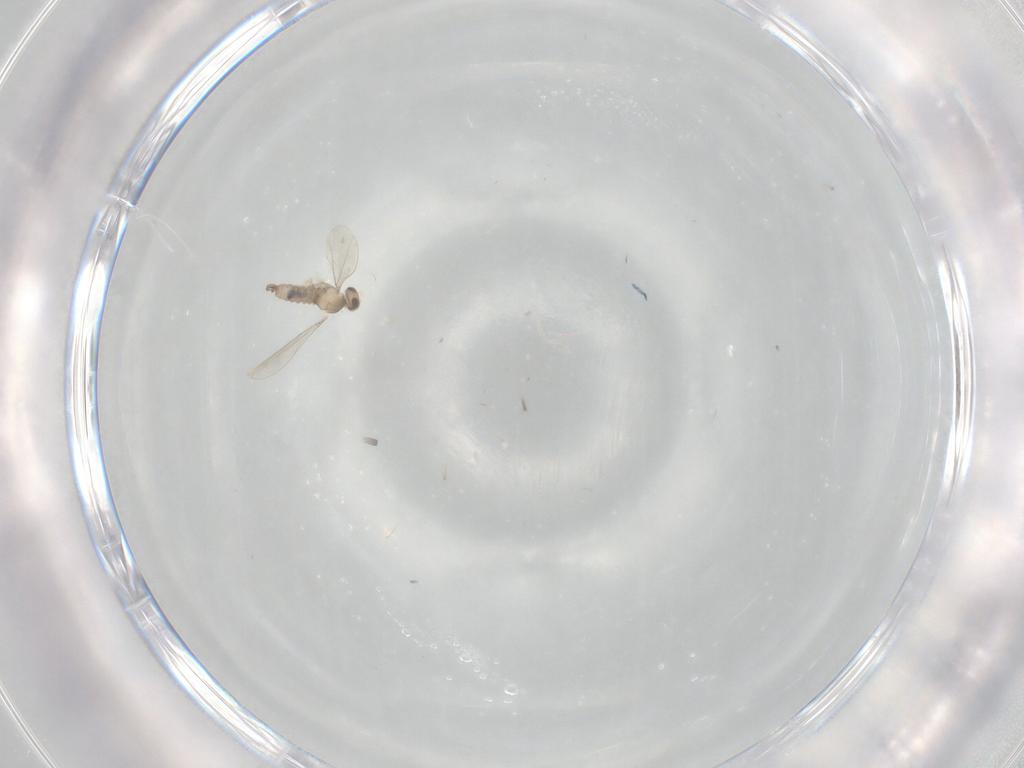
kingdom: Animalia
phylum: Arthropoda
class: Insecta
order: Diptera
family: Cecidomyiidae
